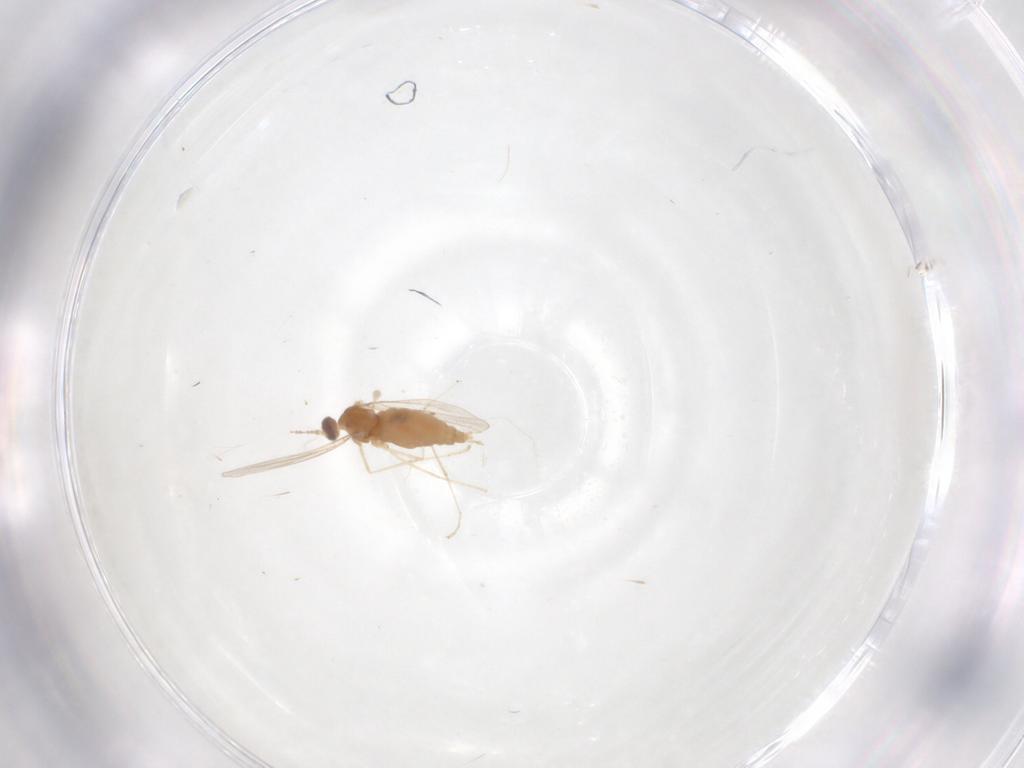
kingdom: Animalia
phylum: Arthropoda
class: Insecta
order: Diptera
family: Cecidomyiidae
